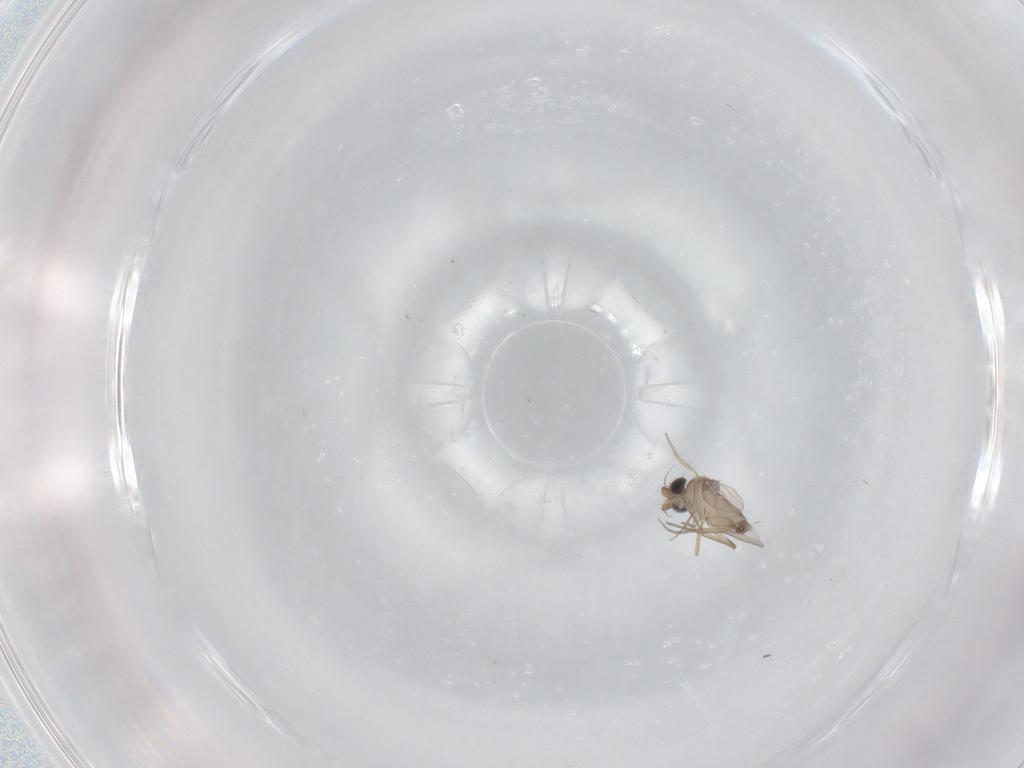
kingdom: Animalia
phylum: Arthropoda
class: Insecta
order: Diptera
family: Phoridae
